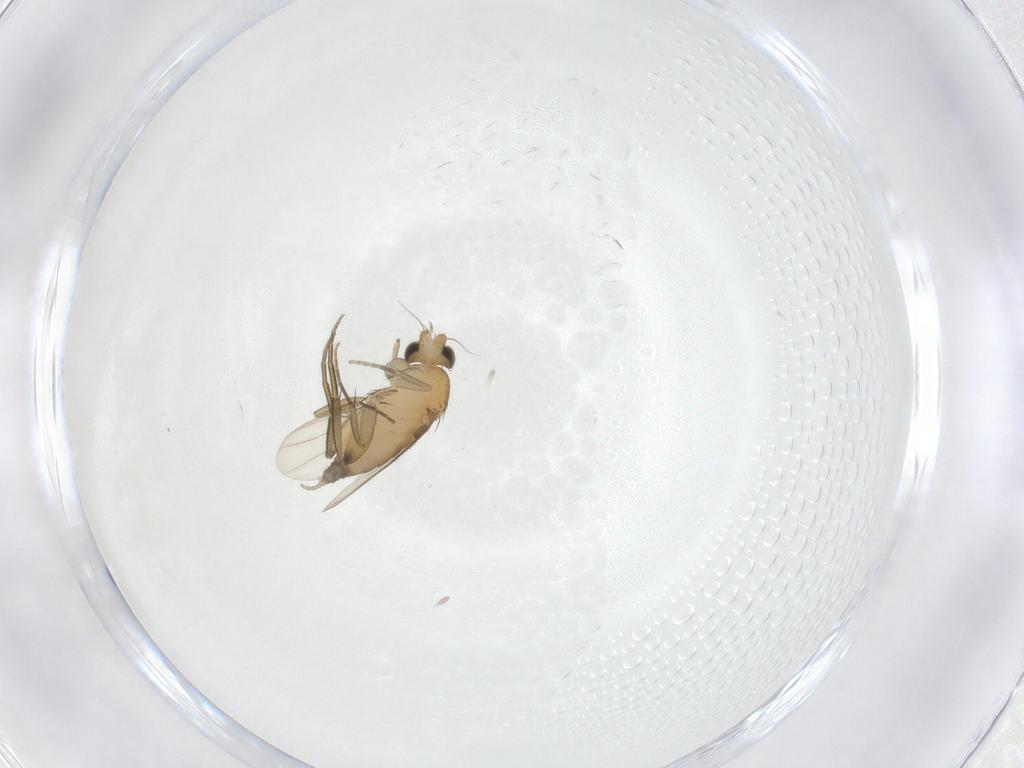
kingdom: Animalia
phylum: Arthropoda
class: Insecta
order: Diptera
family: Phoridae
